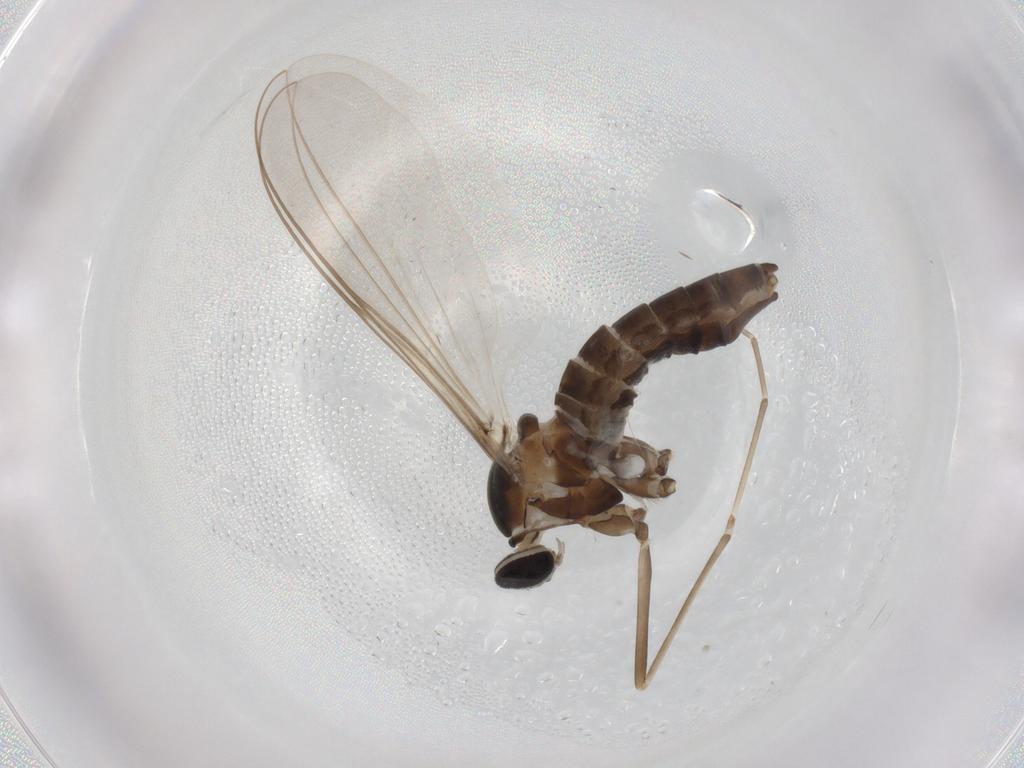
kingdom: Animalia
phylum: Arthropoda
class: Insecta
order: Diptera
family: Cecidomyiidae
